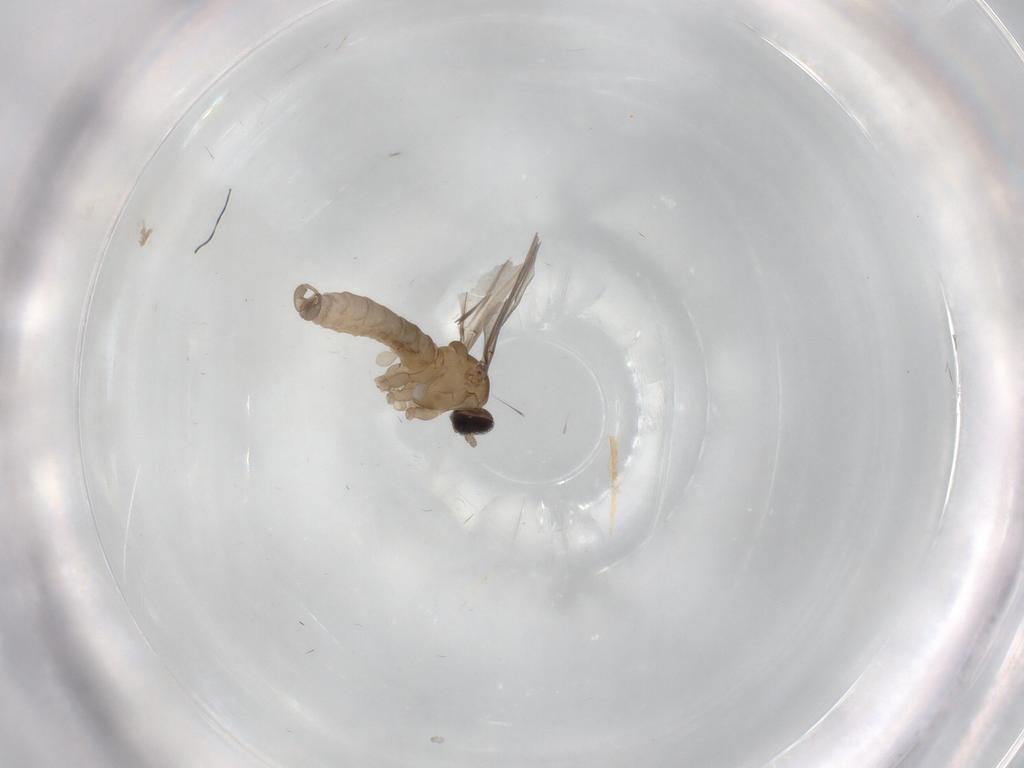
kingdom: Animalia
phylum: Arthropoda
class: Insecta
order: Diptera
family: Cecidomyiidae
